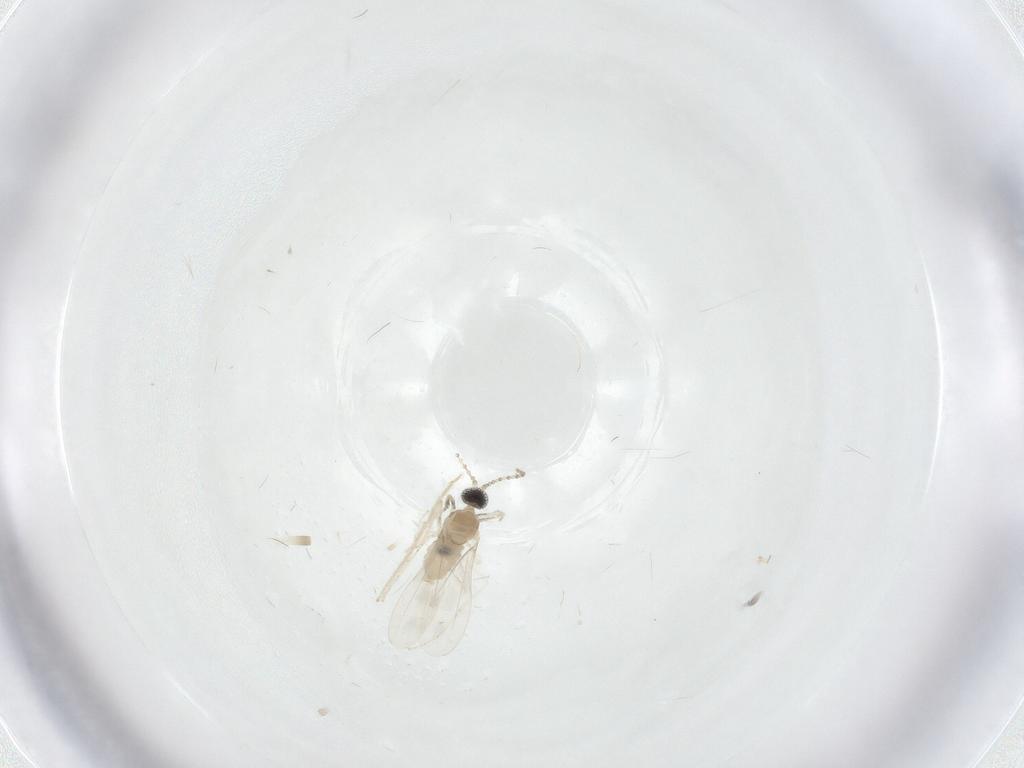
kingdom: Animalia
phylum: Arthropoda
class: Insecta
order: Diptera
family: Cecidomyiidae
